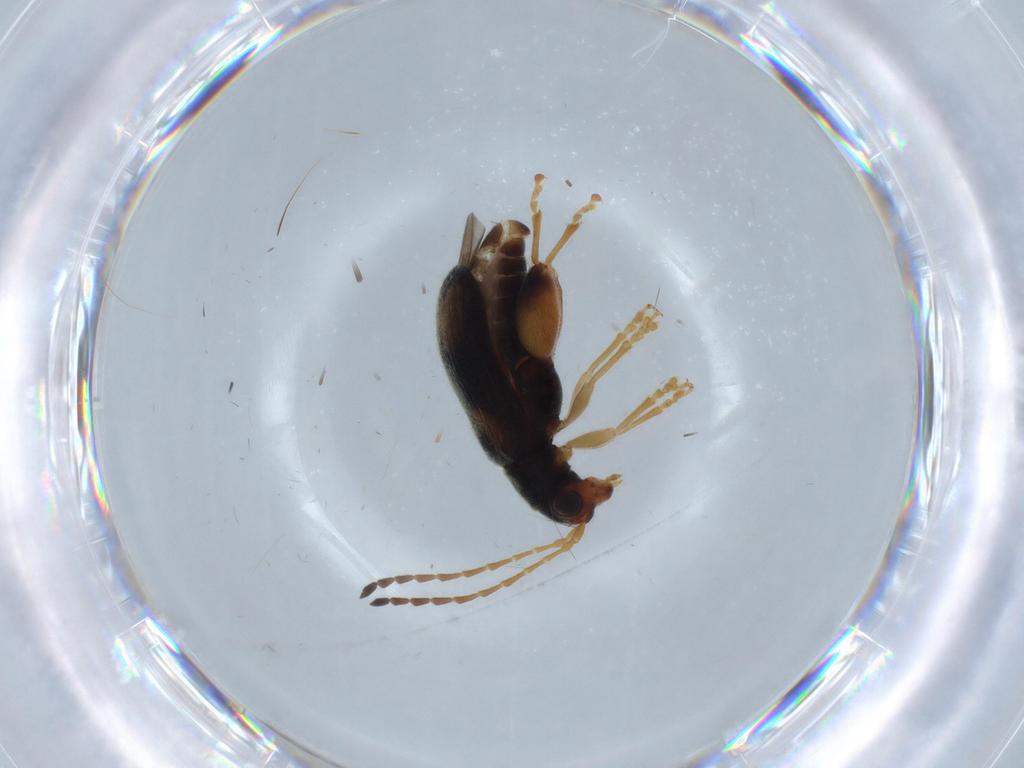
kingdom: Animalia
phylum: Arthropoda
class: Insecta
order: Coleoptera
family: Chrysomelidae
